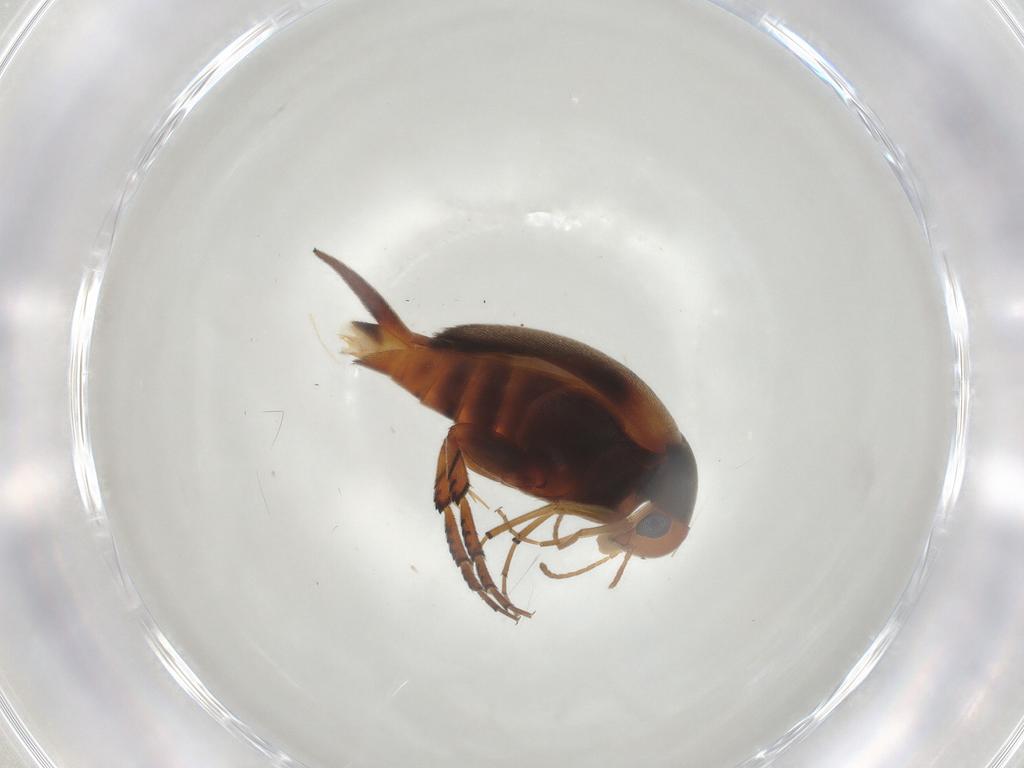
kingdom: Animalia
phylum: Arthropoda
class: Insecta
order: Coleoptera
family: Mordellidae
